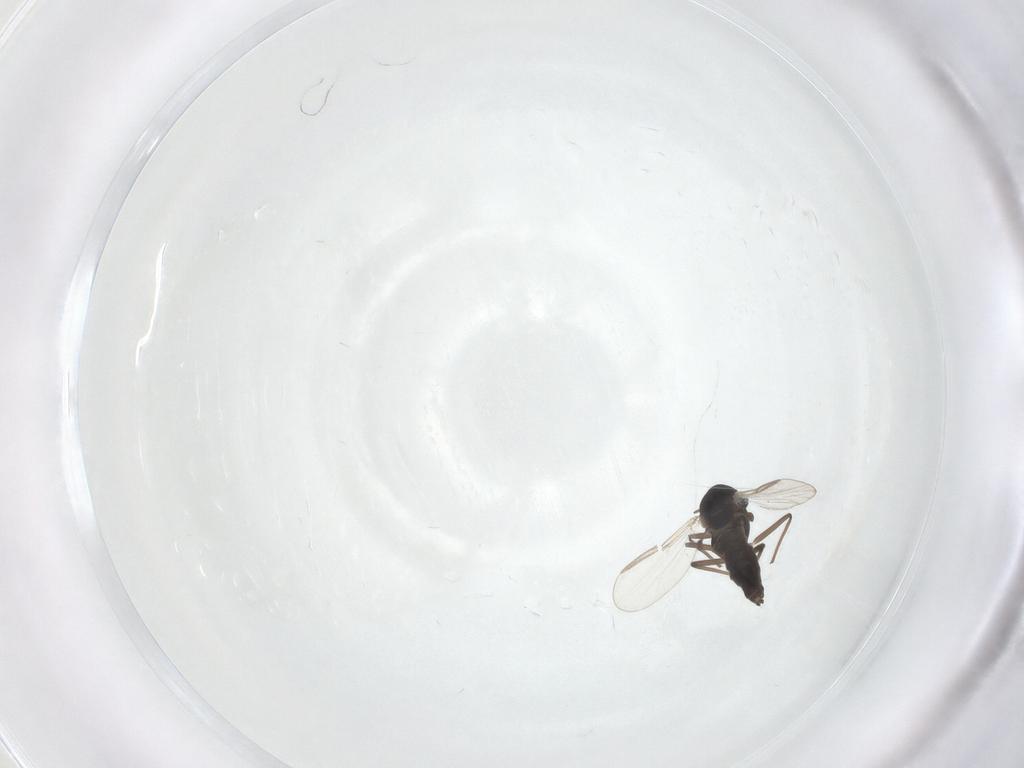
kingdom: Animalia
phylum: Arthropoda
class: Insecta
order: Diptera
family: Chironomidae
